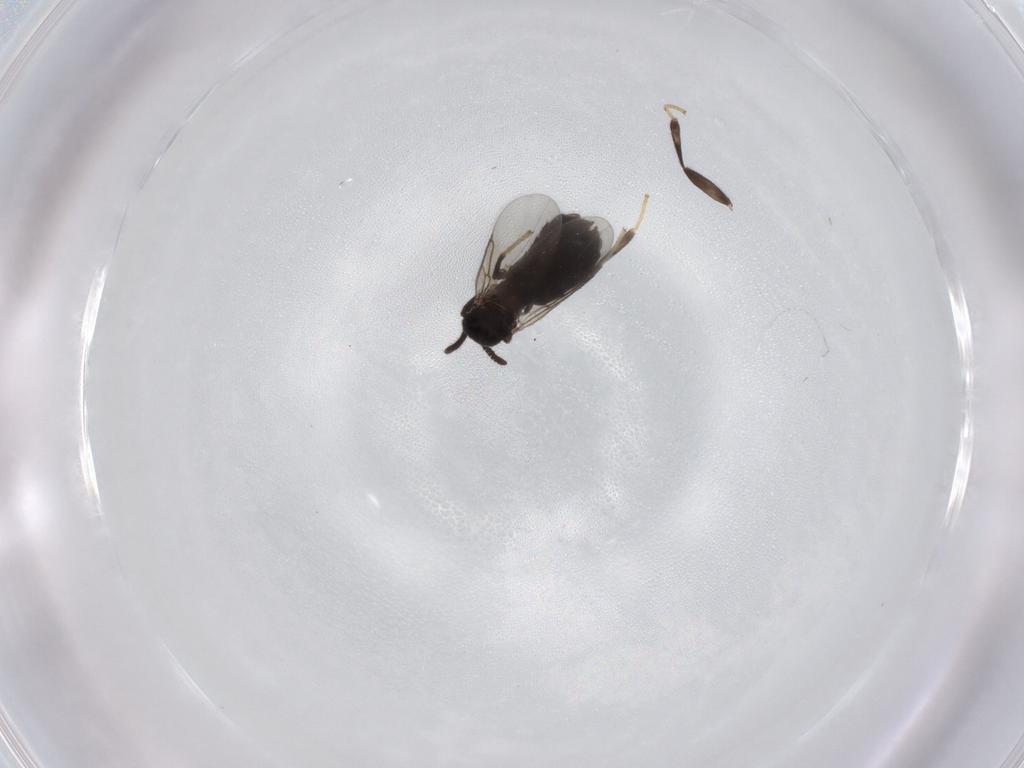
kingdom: Animalia
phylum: Arthropoda
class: Insecta
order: Diptera
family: Scatopsidae
